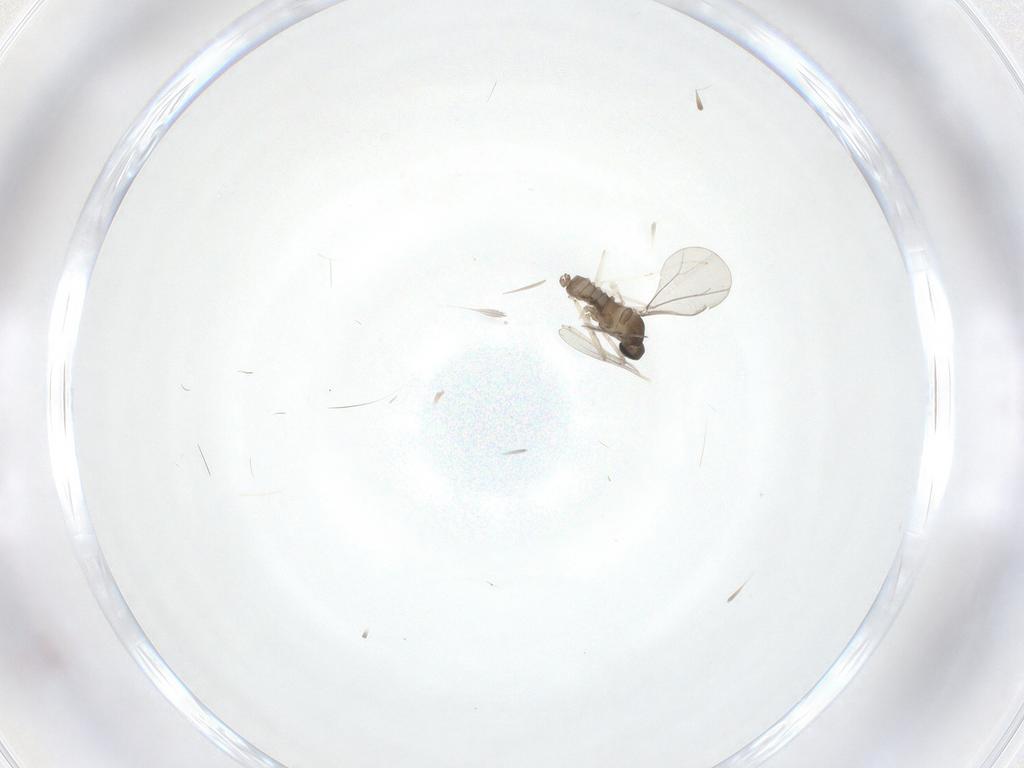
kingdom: Animalia
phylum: Arthropoda
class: Insecta
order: Diptera
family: Cecidomyiidae
